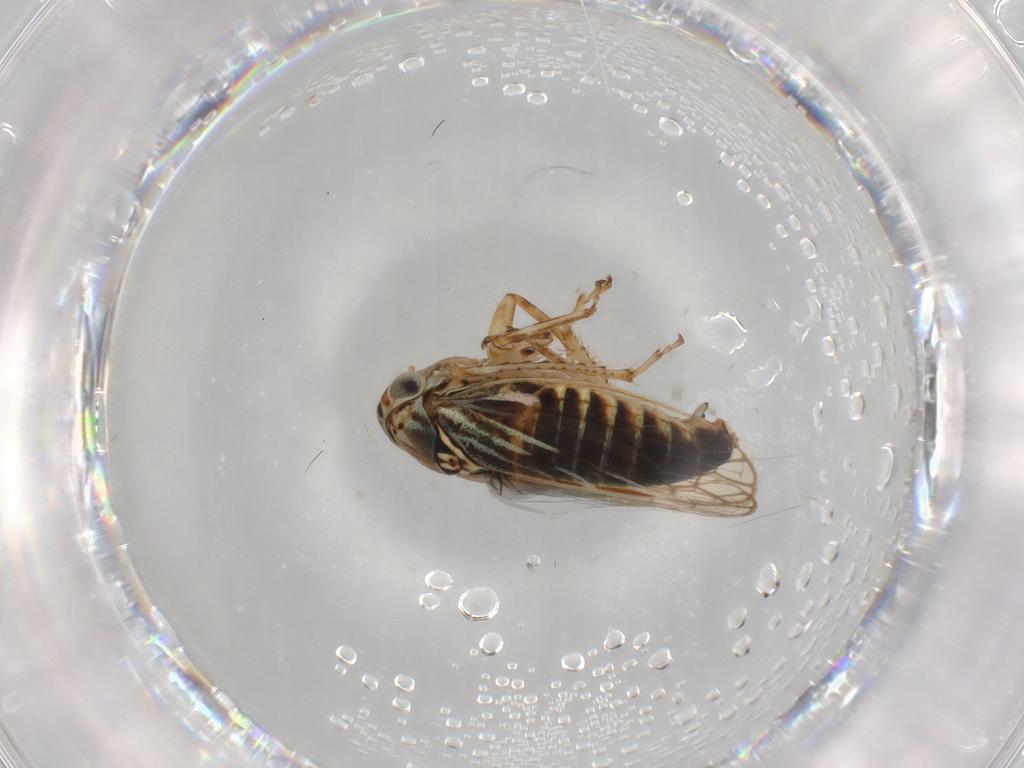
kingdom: Animalia
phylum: Arthropoda
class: Insecta
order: Hemiptera
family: Cicadellidae
